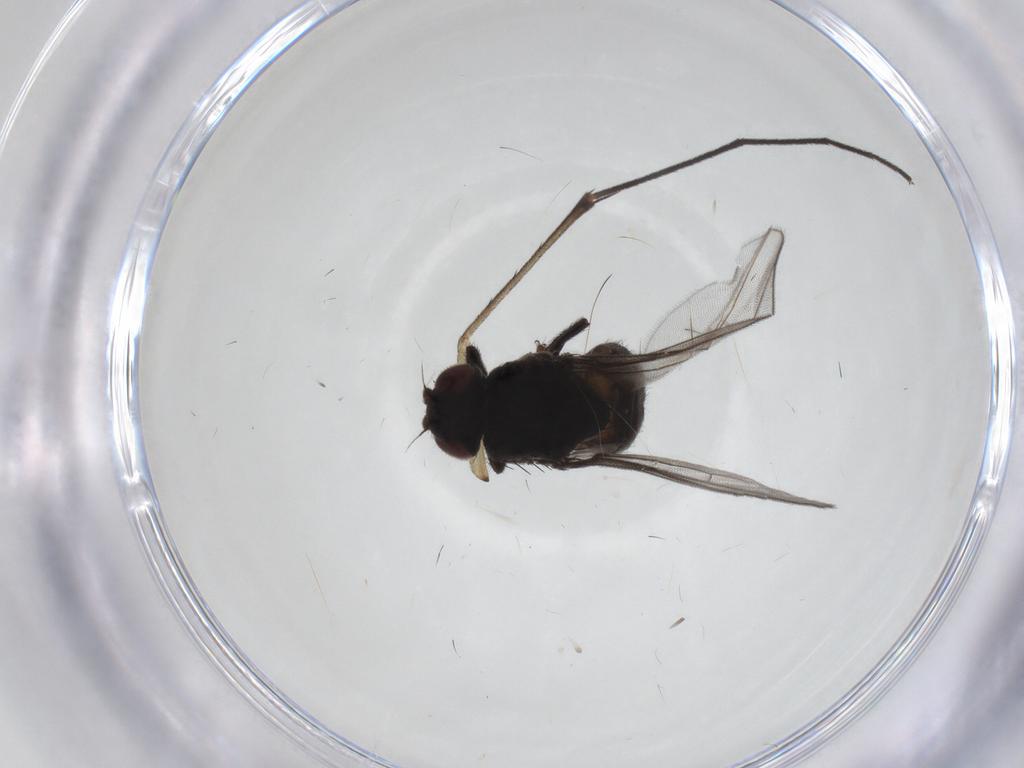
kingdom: Animalia
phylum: Arthropoda
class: Insecta
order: Diptera
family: Chloropidae
